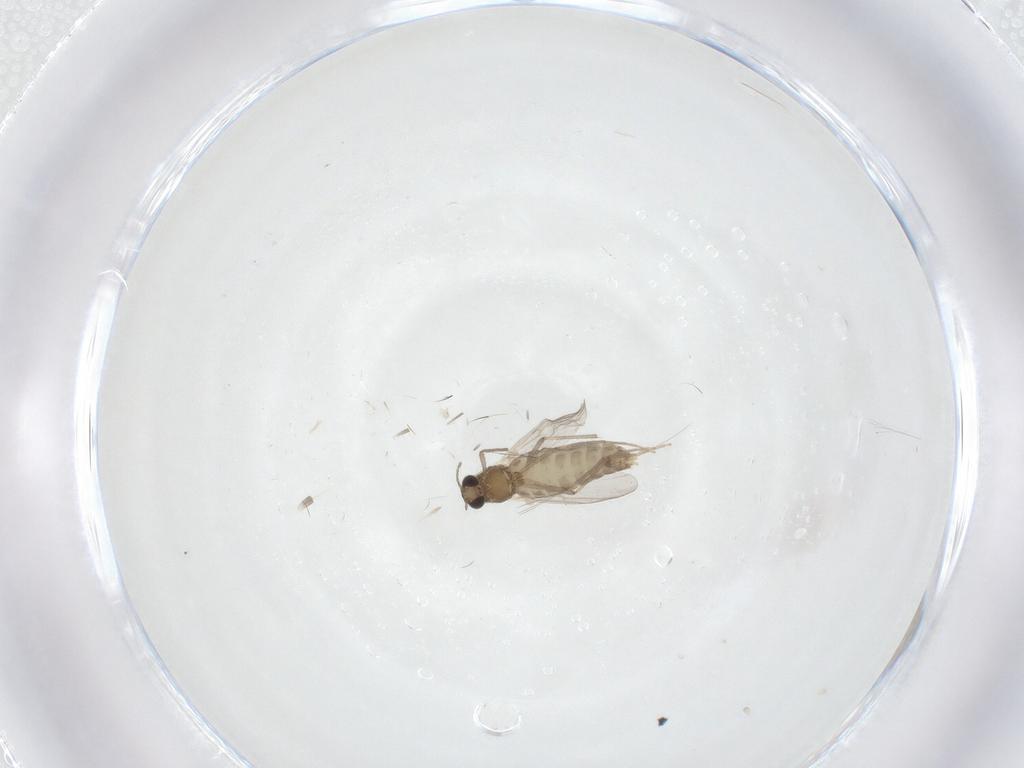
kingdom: Animalia
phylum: Arthropoda
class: Insecta
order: Diptera
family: Chironomidae
